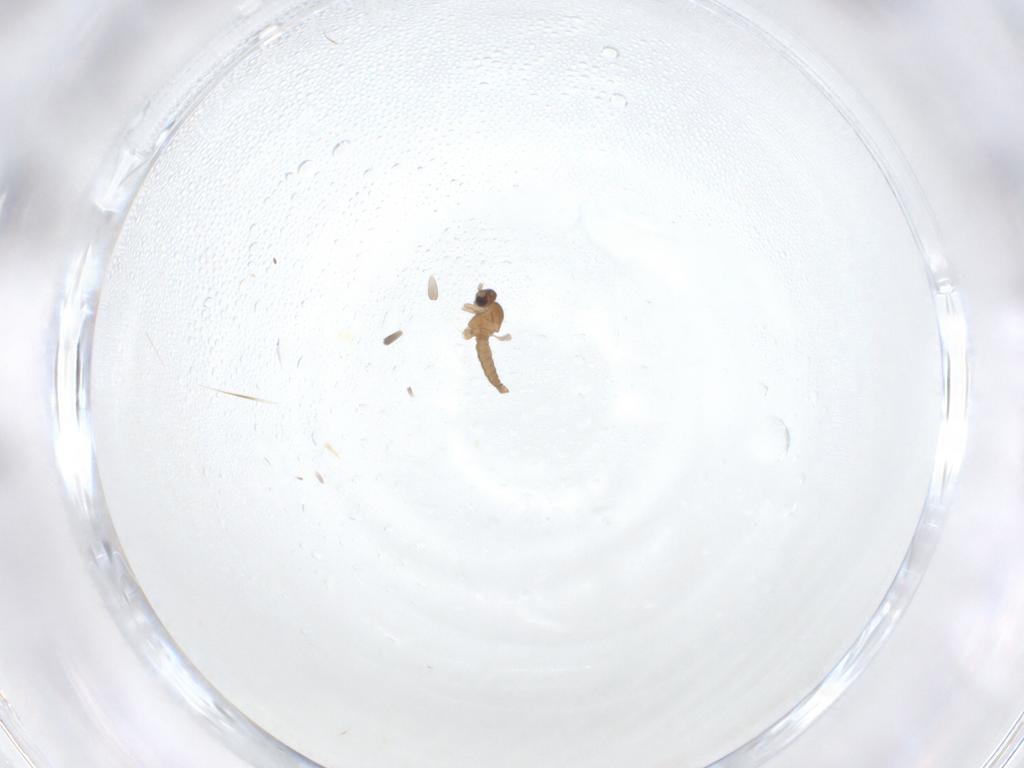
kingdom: Animalia
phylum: Arthropoda
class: Insecta
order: Diptera
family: Cecidomyiidae
